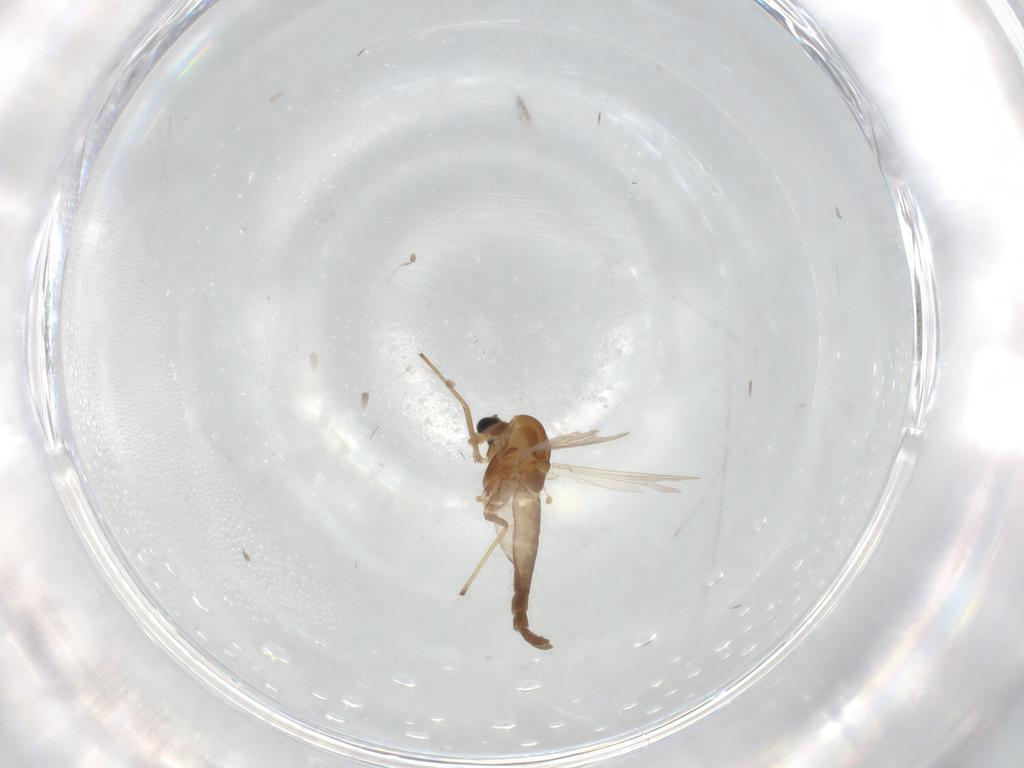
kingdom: Animalia
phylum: Arthropoda
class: Insecta
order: Diptera
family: Chironomidae
